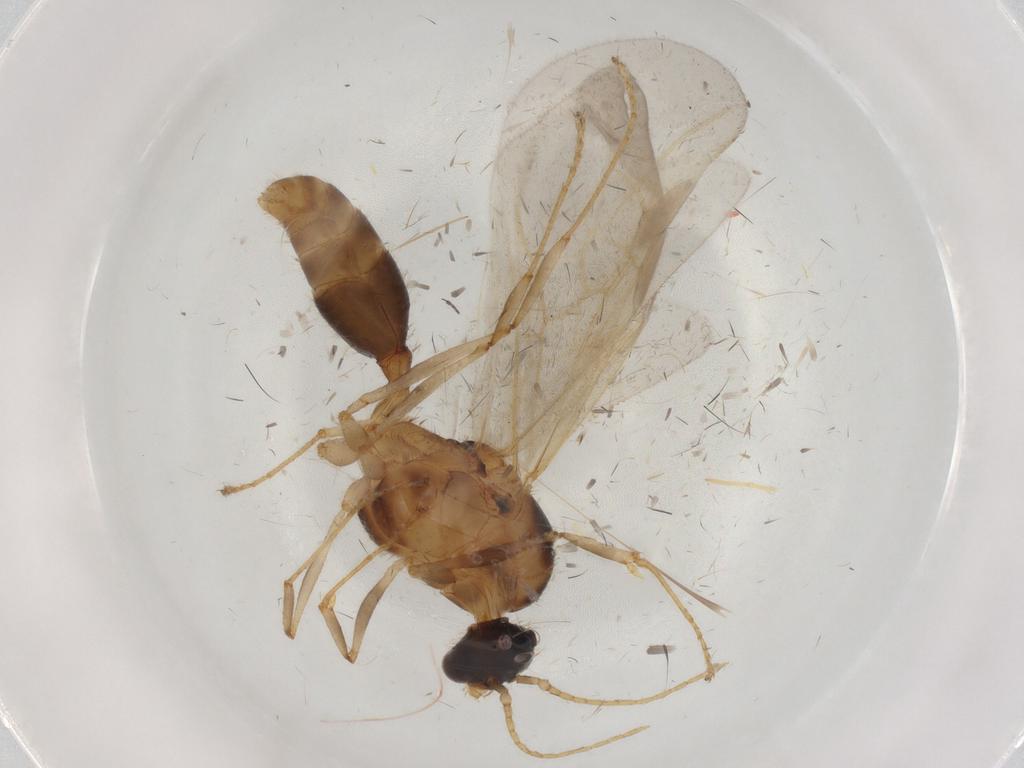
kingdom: Animalia
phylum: Arthropoda
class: Insecta
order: Hymenoptera
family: Formicidae
